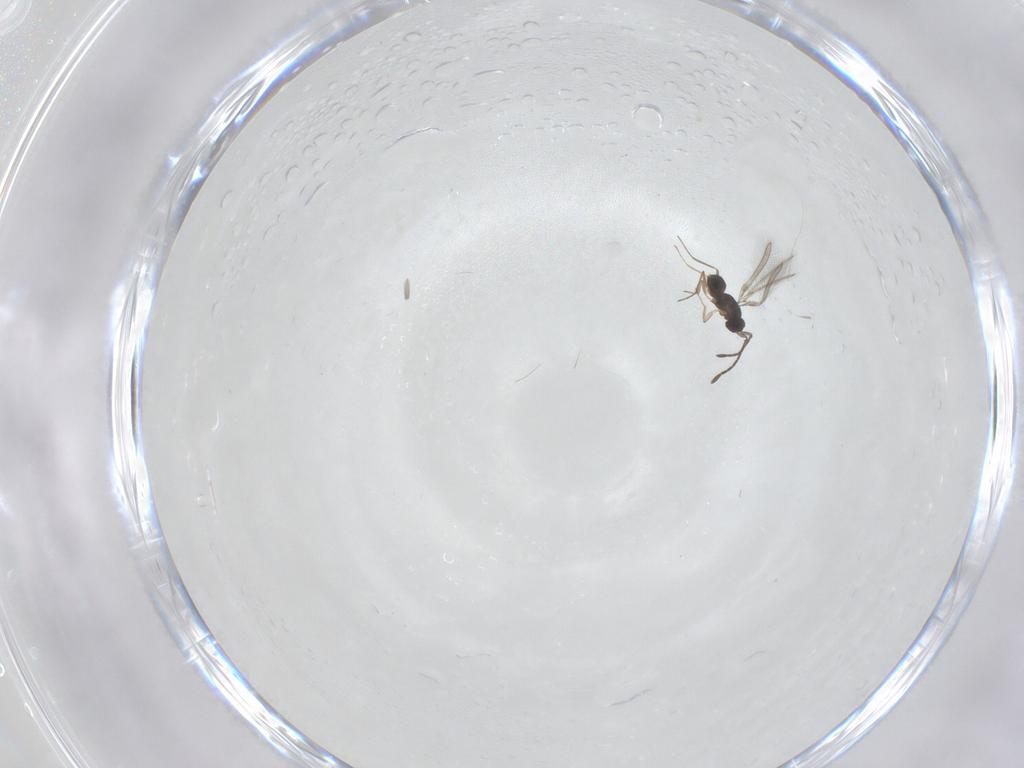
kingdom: Animalia
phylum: Arthropoda
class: Insecta
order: Hymenoptera
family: Mymaridae
